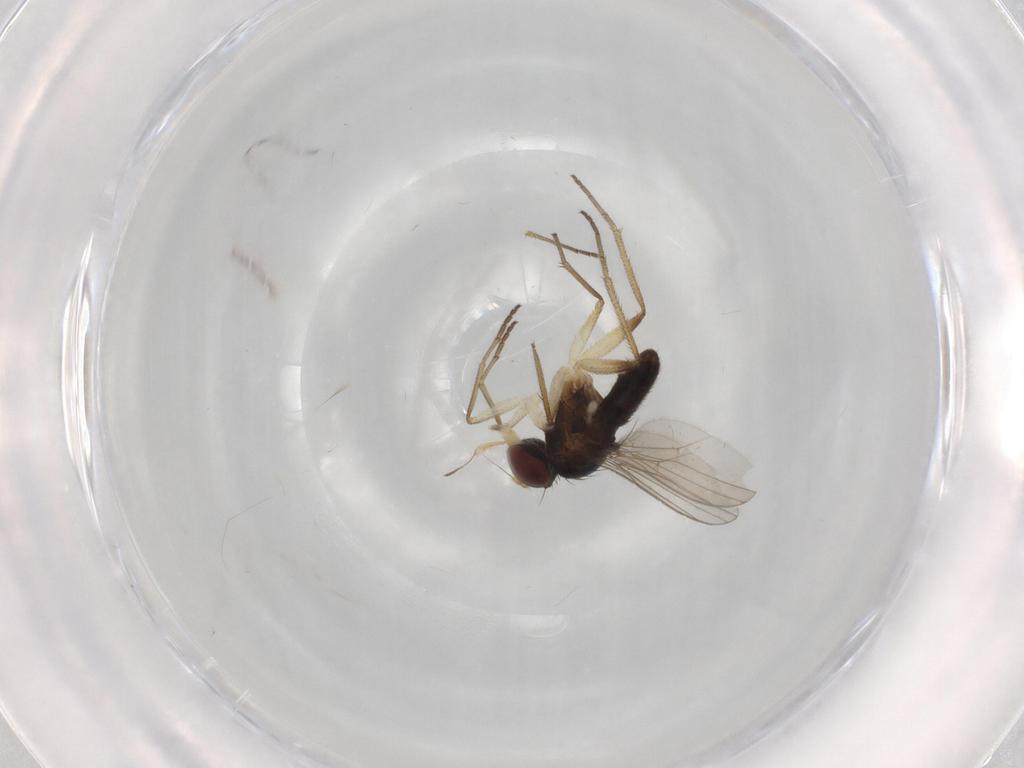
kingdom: Animalia
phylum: Arthropoda
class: Insecta
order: Diptera
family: Dolichopodidae
